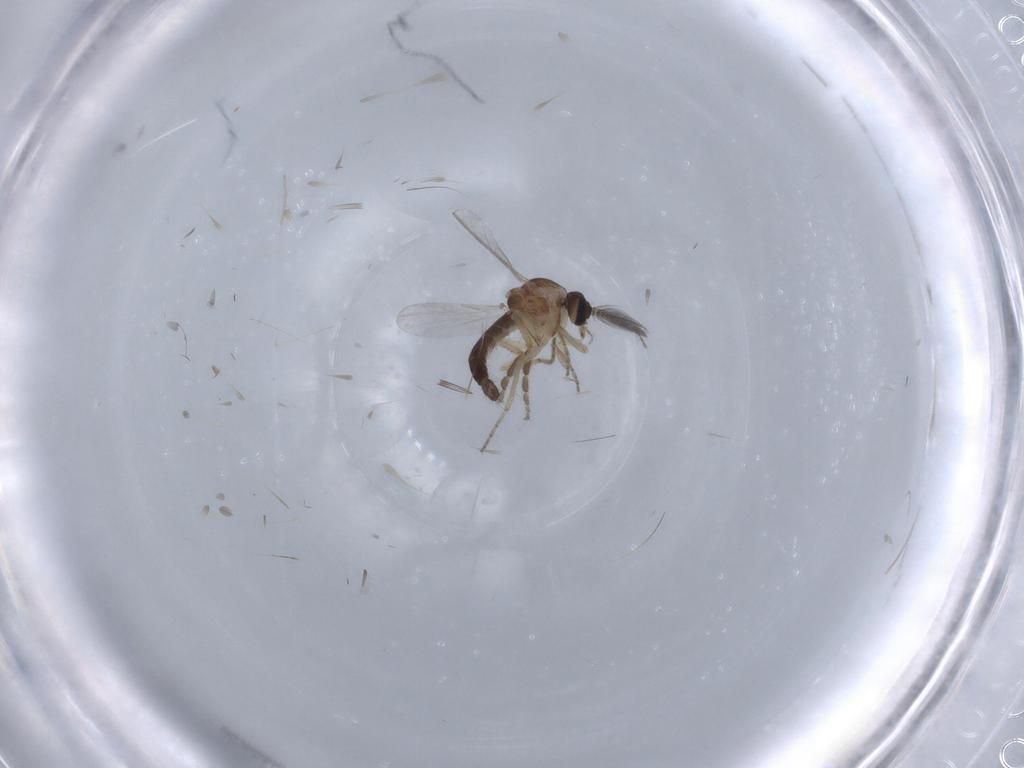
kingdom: Animalia
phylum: Arthropoda
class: Insecta
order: Diptera
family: Ceratopogonidae
